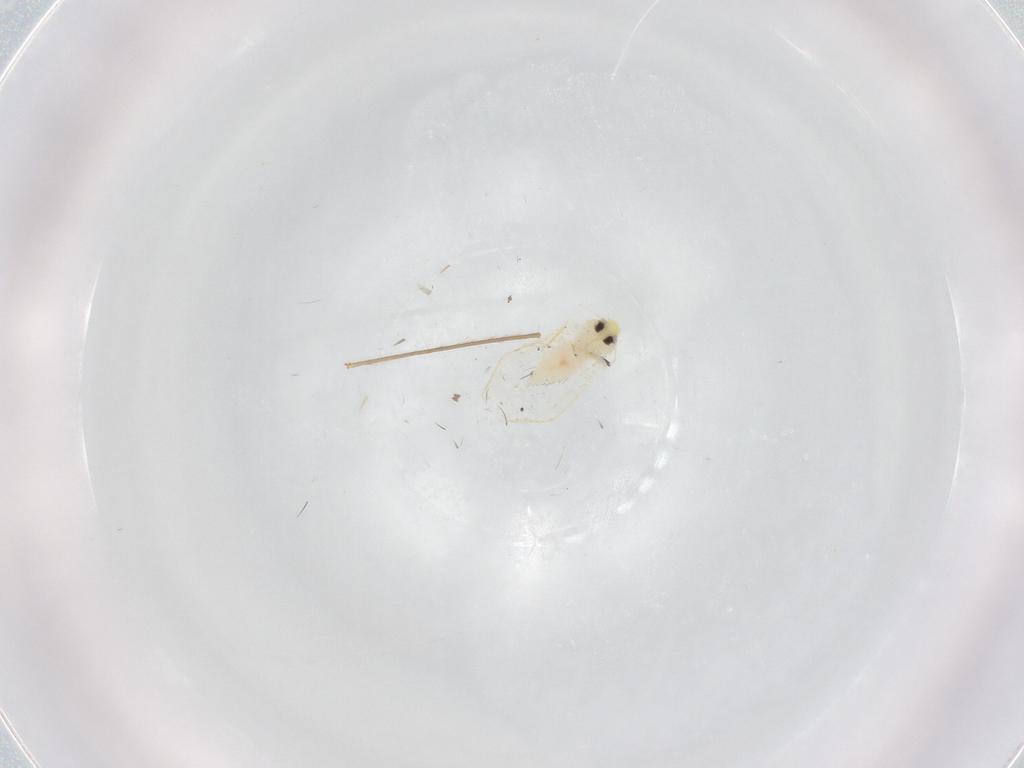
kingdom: Animalia
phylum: Arthropoda
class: Insecta
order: Hemiptera
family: Aleyrodidae
